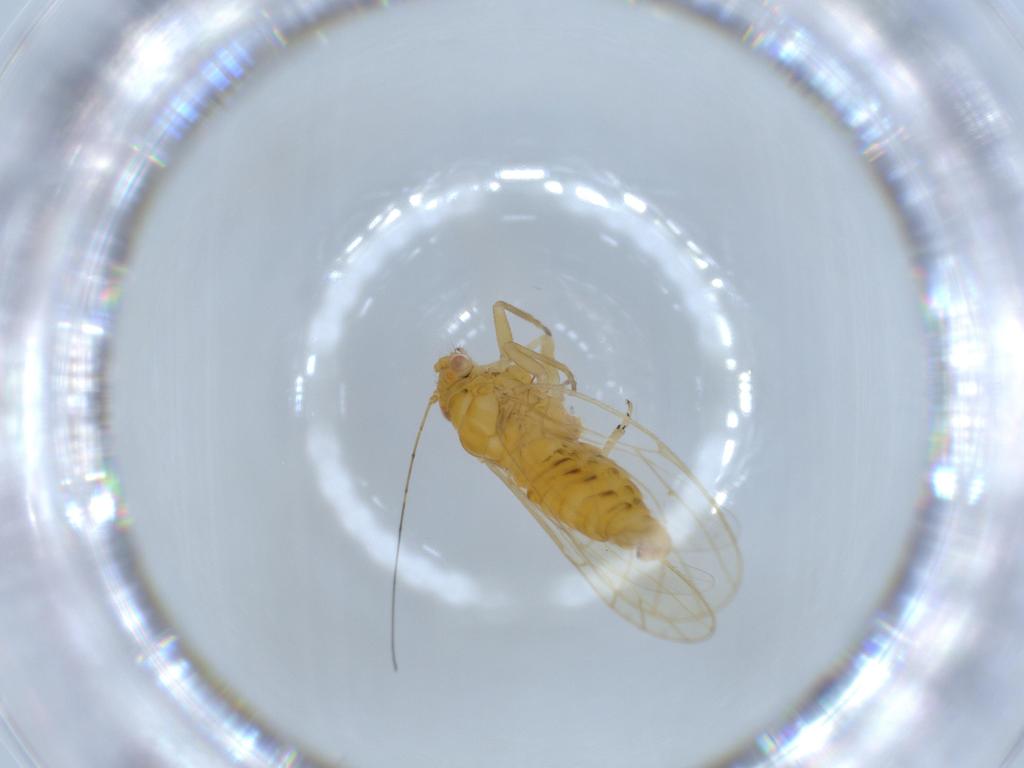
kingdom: Animalia
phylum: Arthropoda
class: Insecta
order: Hemiptera
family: Psyllidae
